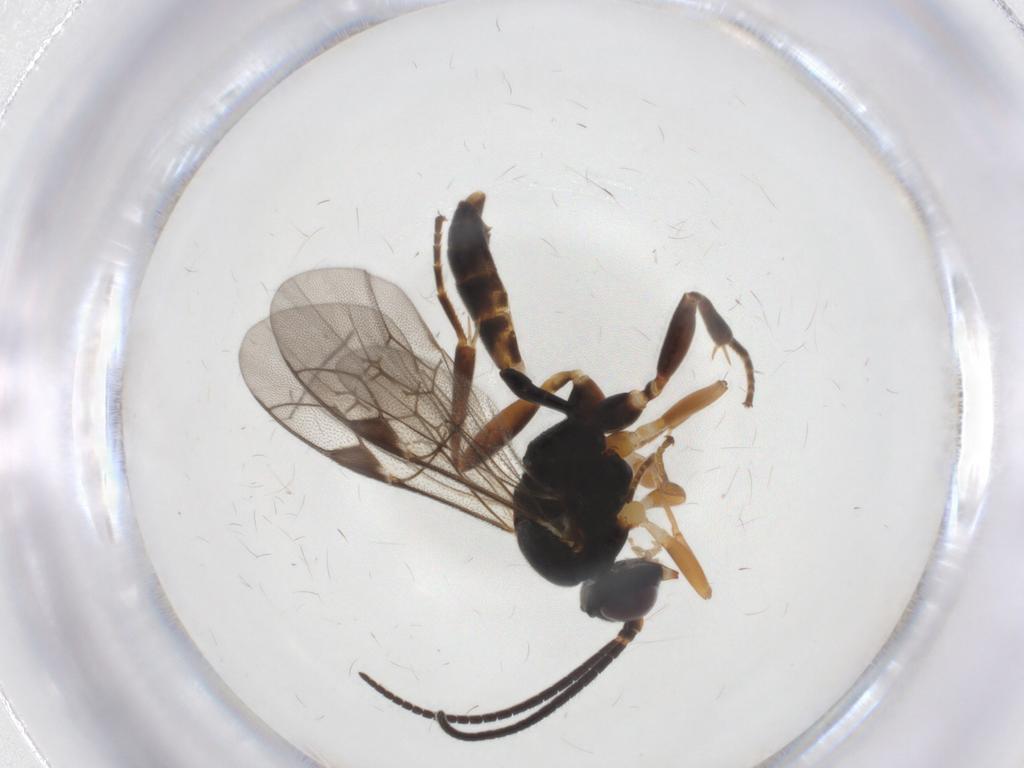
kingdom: Animalia
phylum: Arthropoda
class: Insecta
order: Hymenoptera
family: Ichneumonidae
